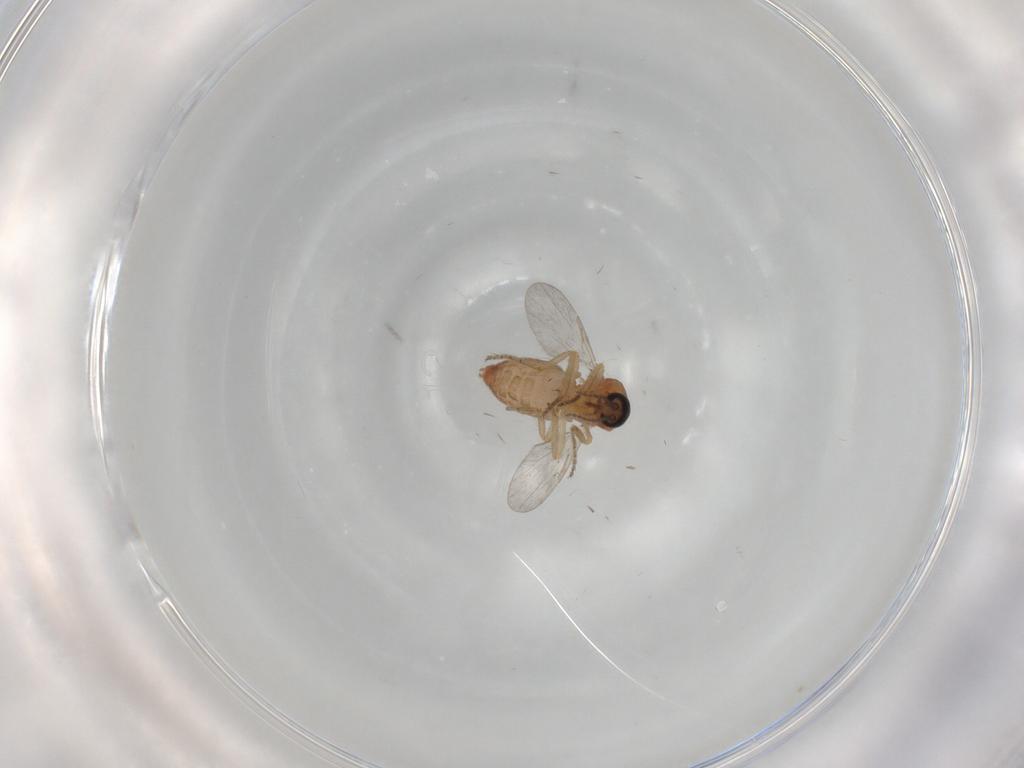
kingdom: Animalia
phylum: Arthropoda
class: Insecta
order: Diptera
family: Ceratopogonidae
